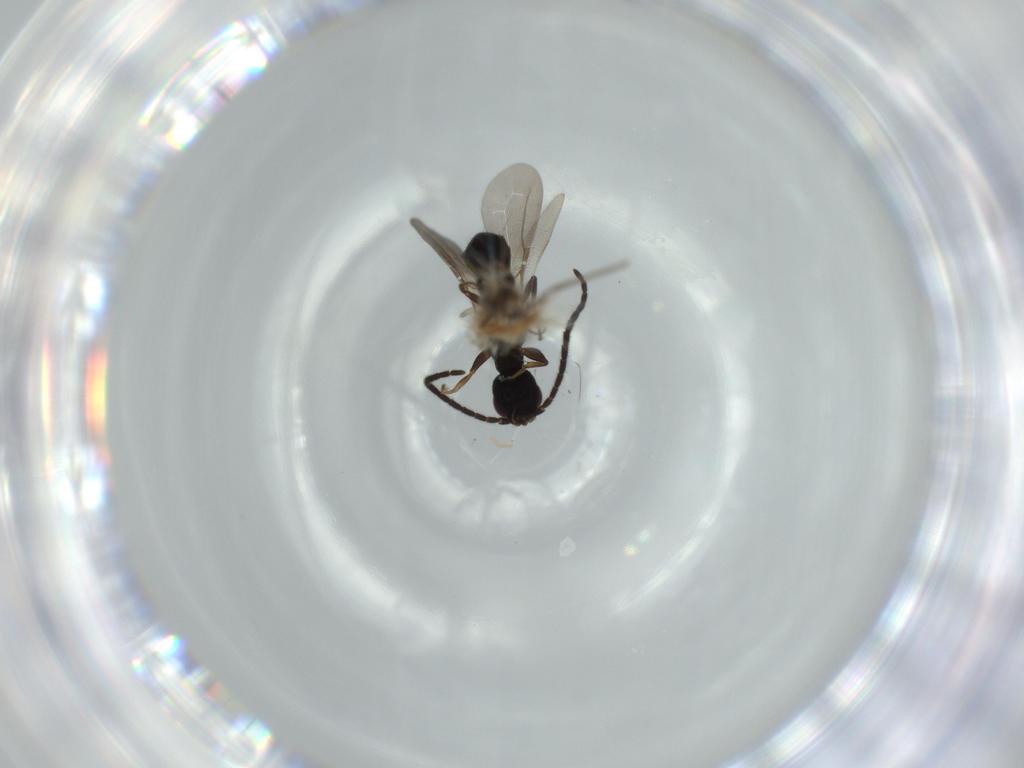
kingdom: Animalia
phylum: Arthropoda
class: Insecta
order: Hymenoptera
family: Bethylidae
